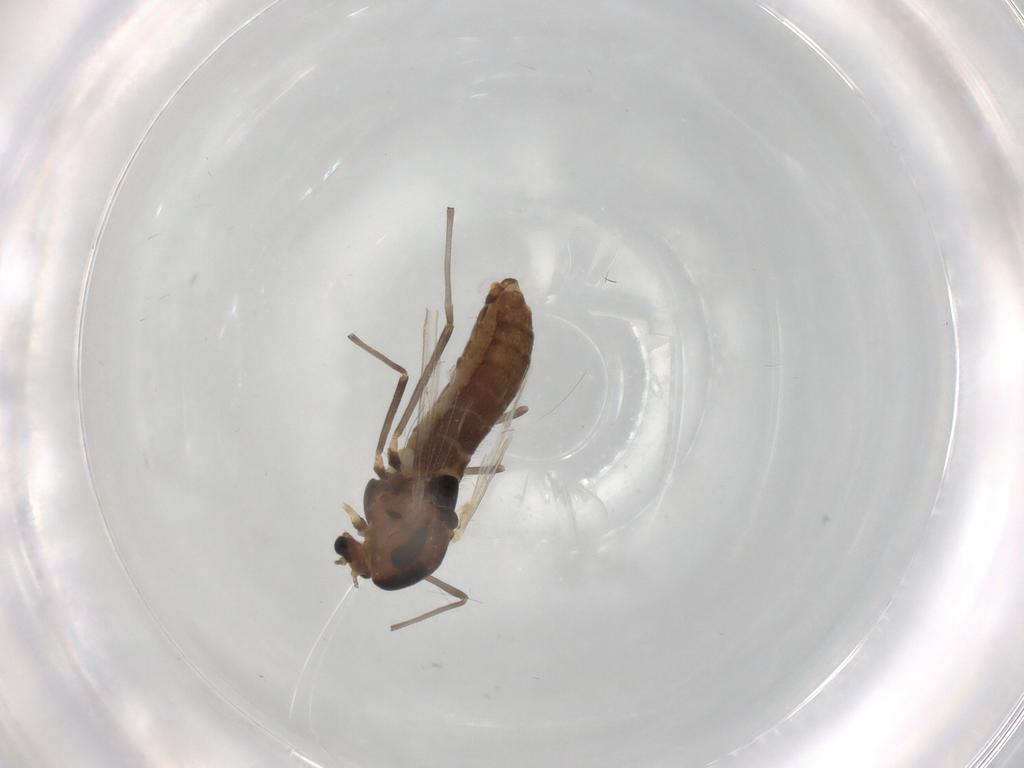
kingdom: Animalia
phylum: Arthropoda
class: Insecta
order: Diptera
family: Chironomidae
